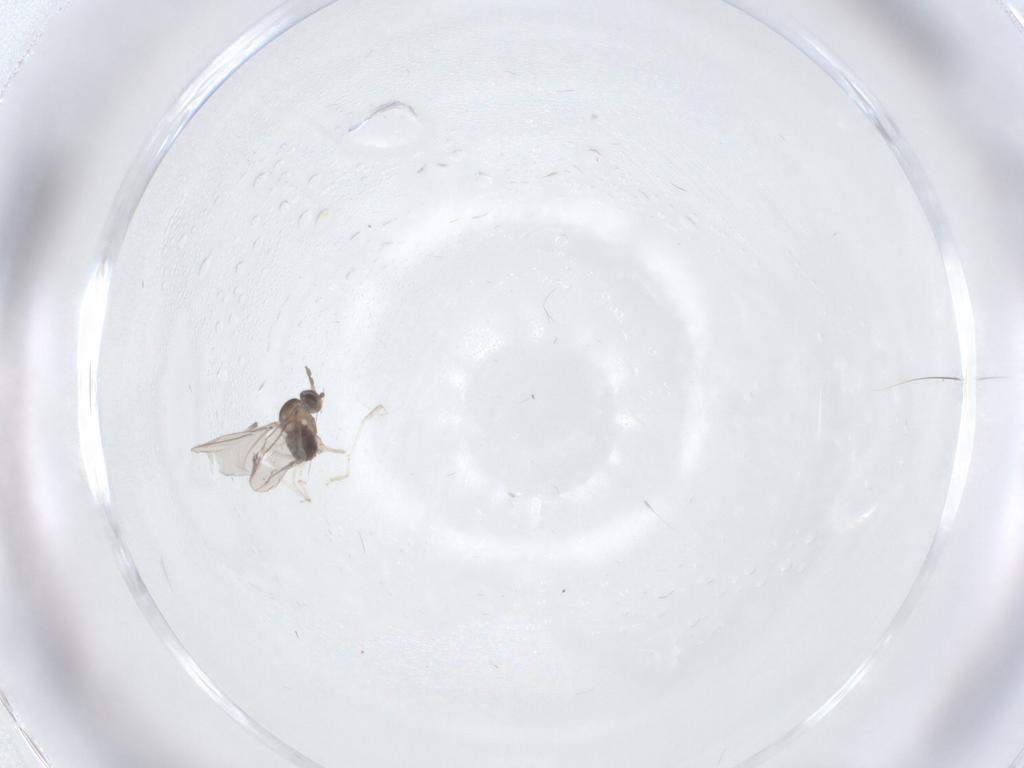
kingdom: Animalia
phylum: Arthropoda
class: Insecta
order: Diptera
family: Cecidomyiidae
